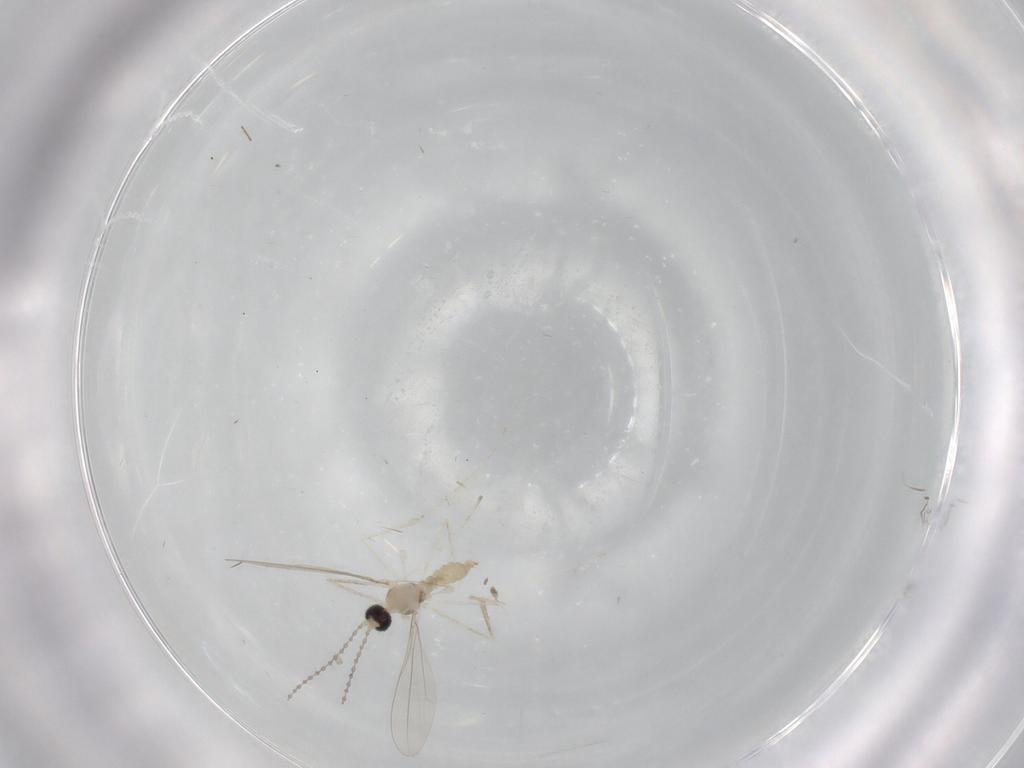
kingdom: Animalia
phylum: Arthropoda
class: Insecta
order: Diptera
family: Cecidomyiidae
